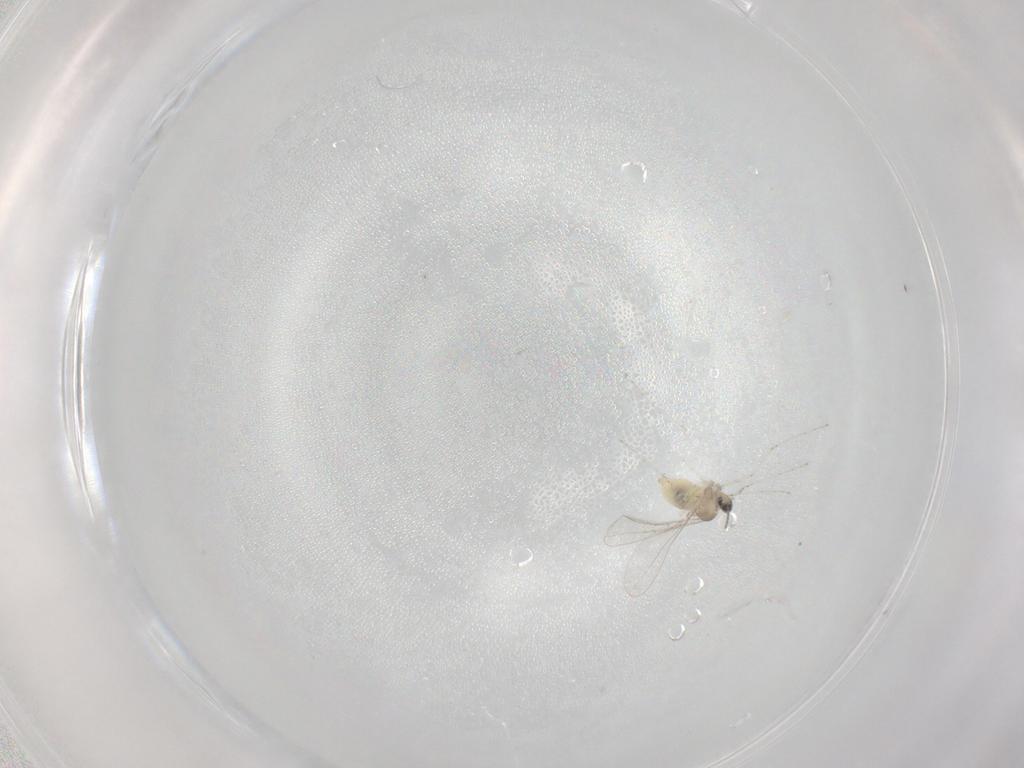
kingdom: Animalia
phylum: Arthropoda
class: Insecta
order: Diptera
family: Cecidomyiidae
